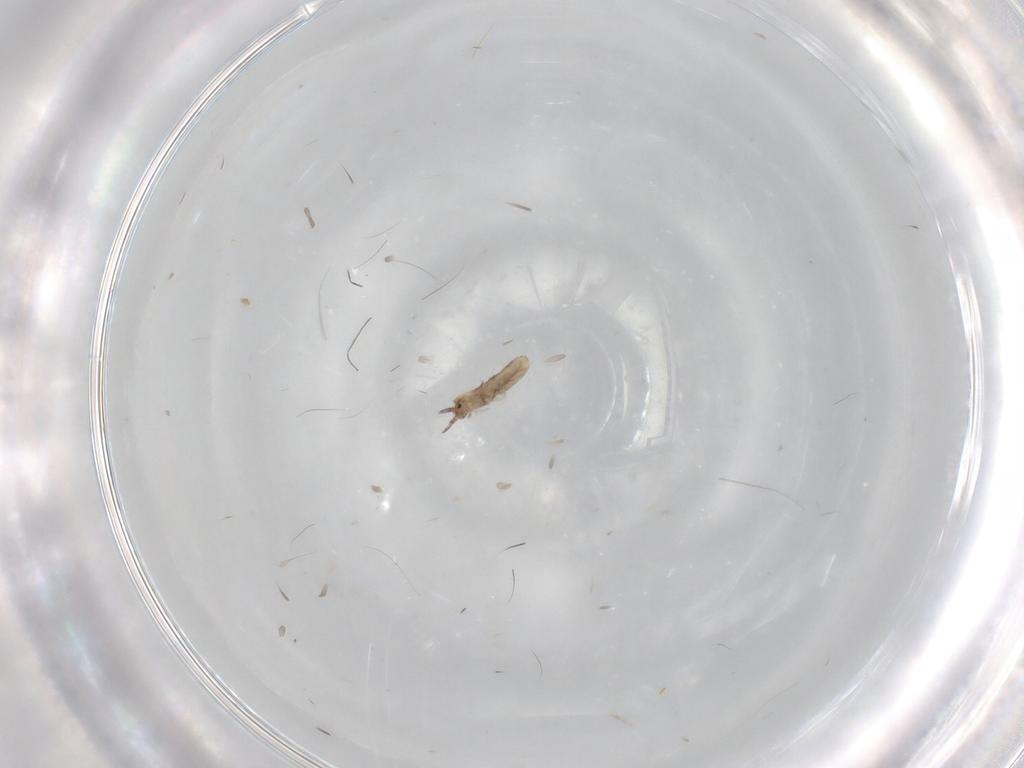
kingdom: Animalia
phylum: Arthropoda
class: Collembola
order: Entomobryomorpha
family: Entomobryidae
